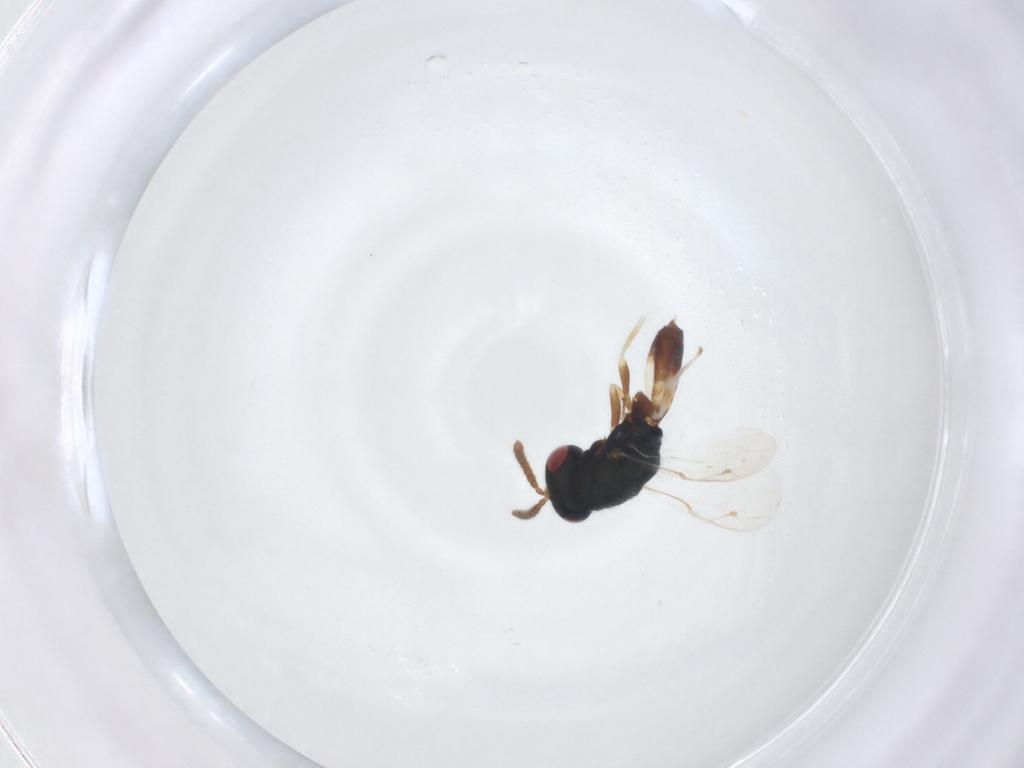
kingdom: Animalia
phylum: Arthropoda
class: Insecta
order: Hymenoptera
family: Pteromalidae
